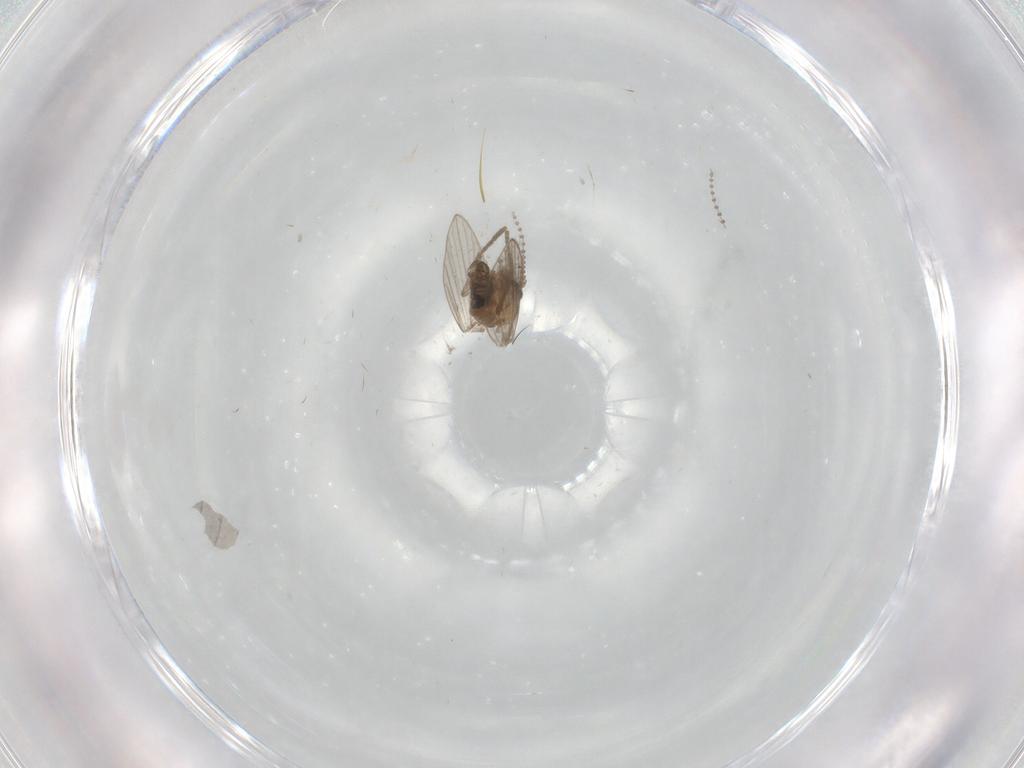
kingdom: Animalia
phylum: Arthropoda
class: Insecta
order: Diptera
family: Psychodidae
